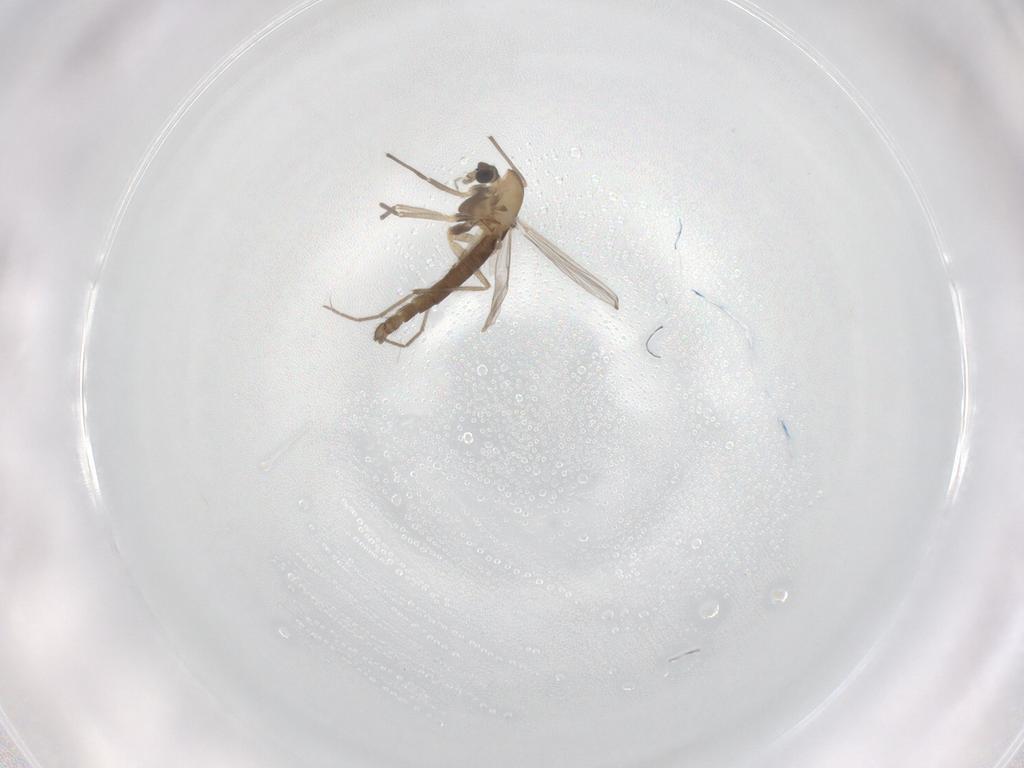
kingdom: Animalia
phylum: Arthropoda
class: Insecta
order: Diptera
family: Chironomidae
